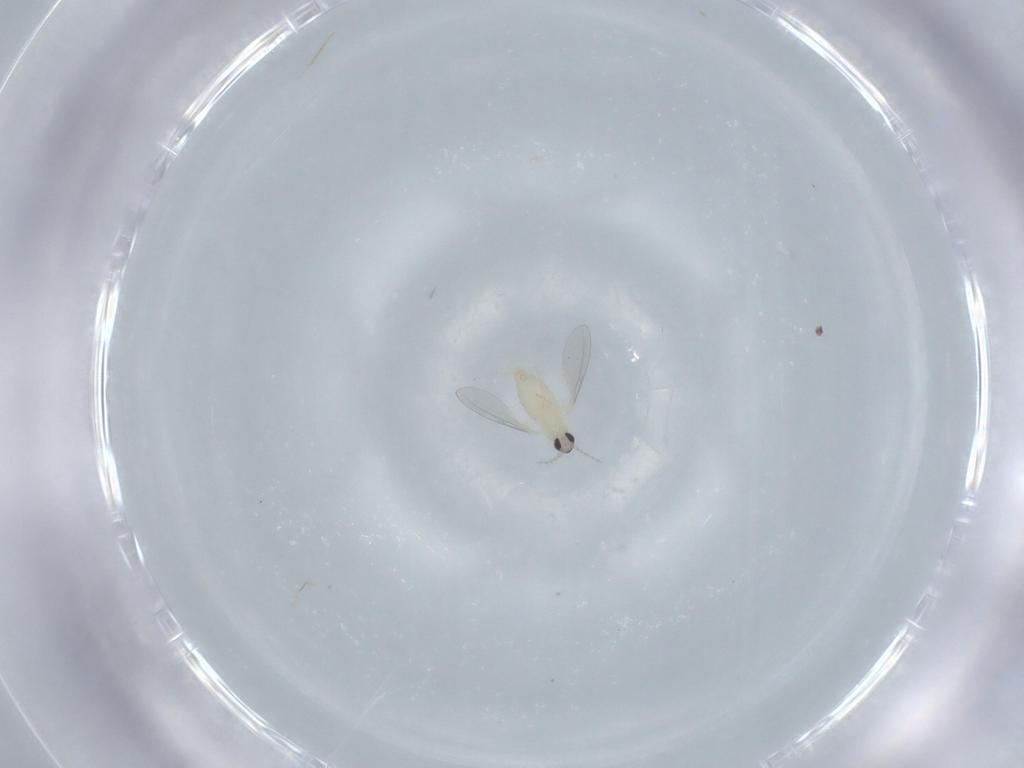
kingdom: Animalia
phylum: Arthropoda
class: Insecta
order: Diptera
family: Cecidomyiidae
